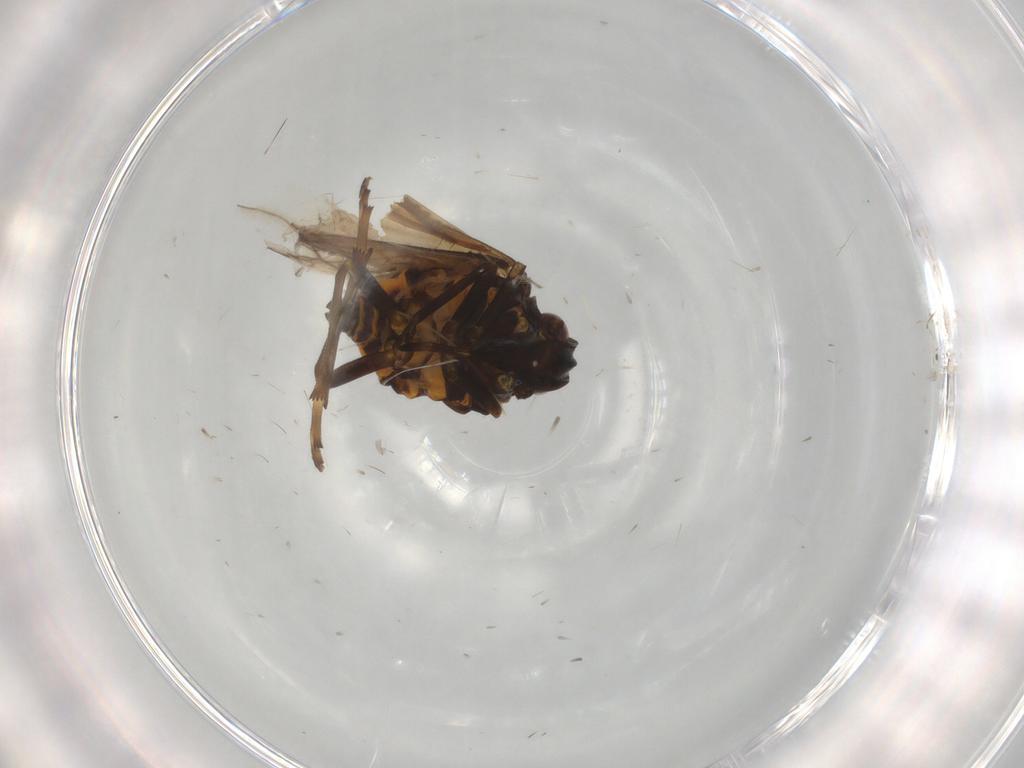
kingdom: Animalia
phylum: Arthropoda
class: Insecta
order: Hemiptera
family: Meenoplidae
